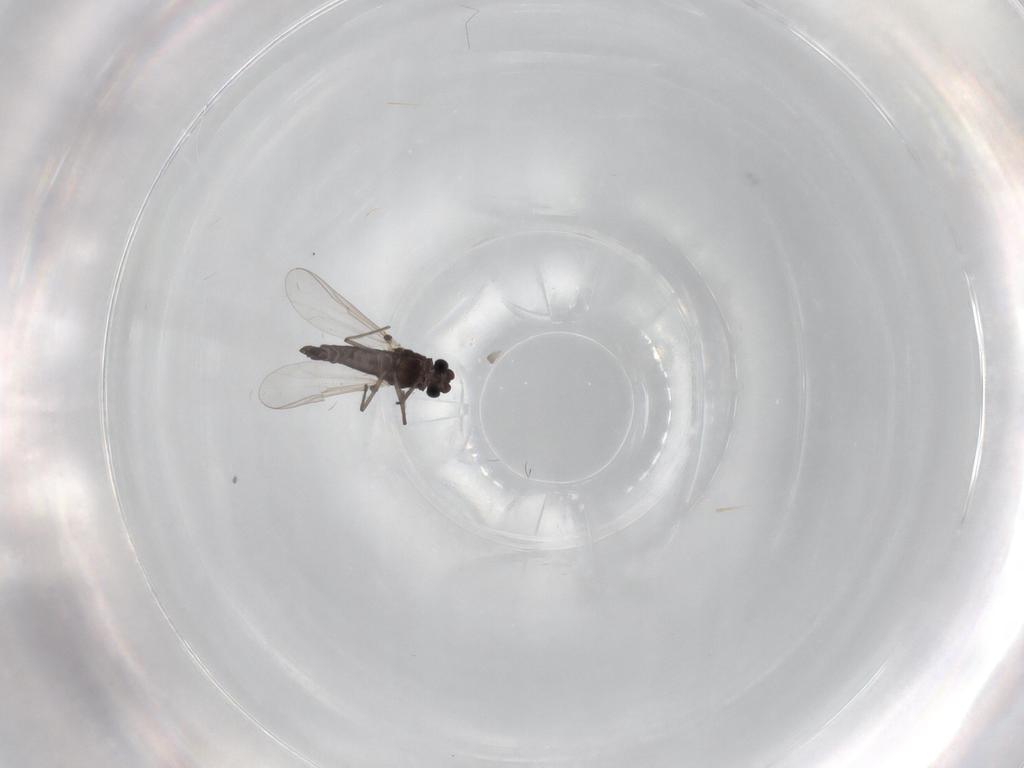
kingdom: Animalia
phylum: Arthropoda
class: Insecta
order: Diptera
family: Chironomidae
